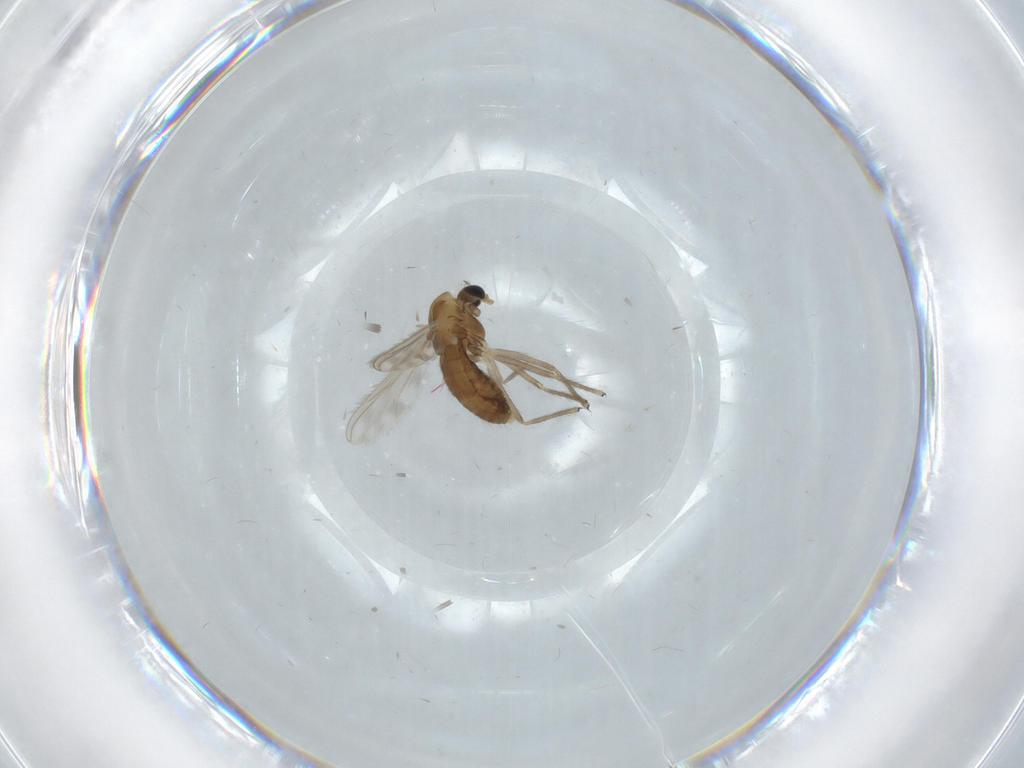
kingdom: Animalia
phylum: Arthropoda
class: Insecta
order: Diptera
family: Chironomidae
